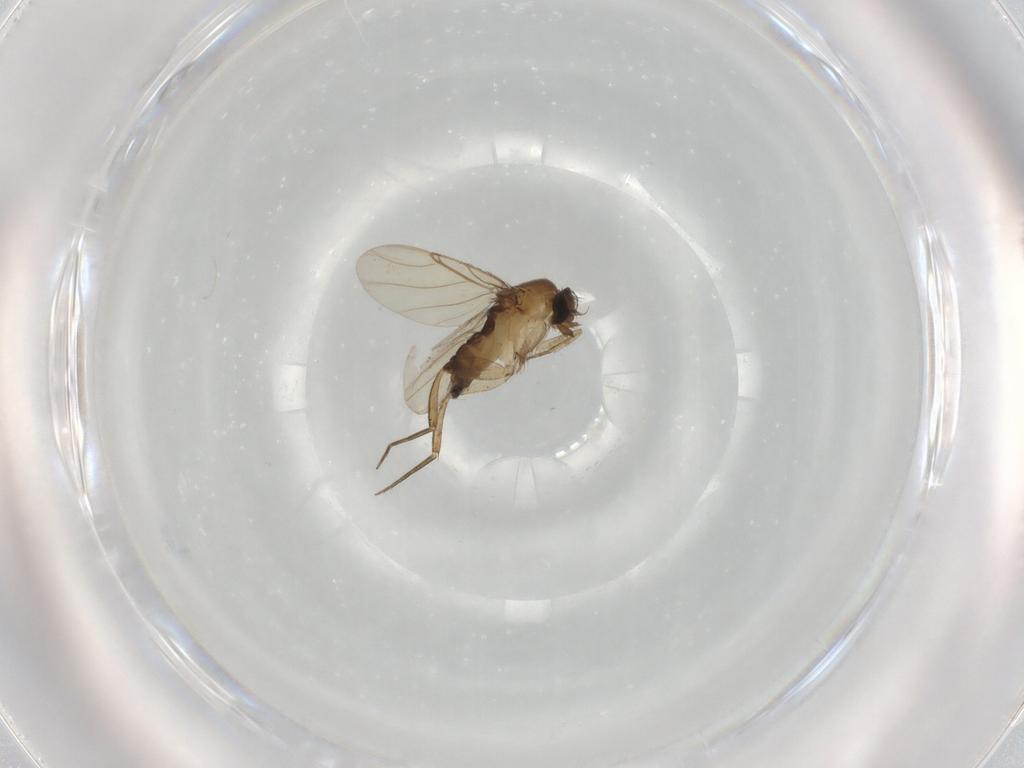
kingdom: Animalia
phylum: Arthropoda
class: Insecta
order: Diptera
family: Cecidomyiidae
